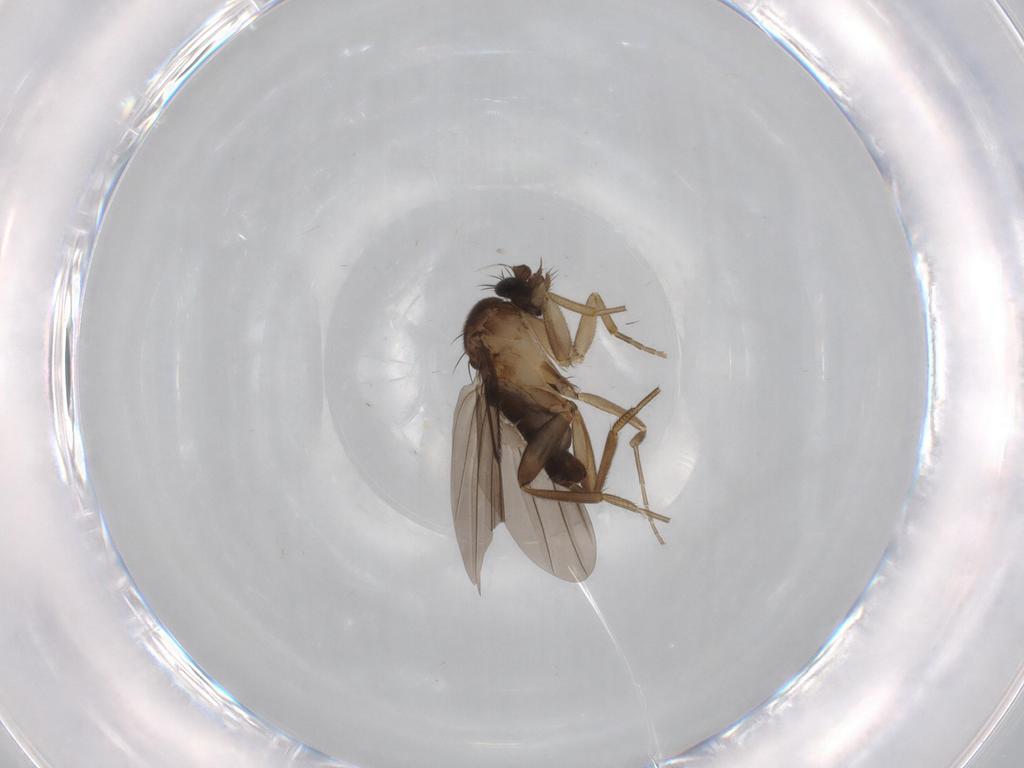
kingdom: Animalia
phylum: Arthropoda
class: Insecta
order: Diptera
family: Phoridae
